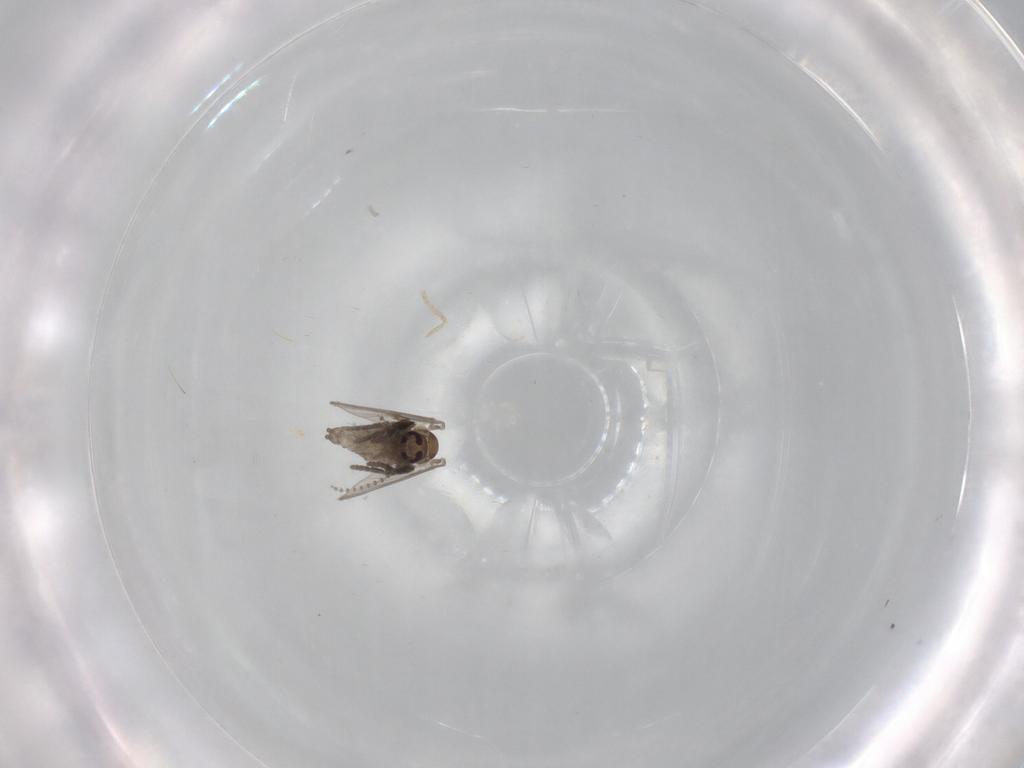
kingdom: Animalia
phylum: Arthropoda
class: Insecta
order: Diptera
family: Psychodidae
